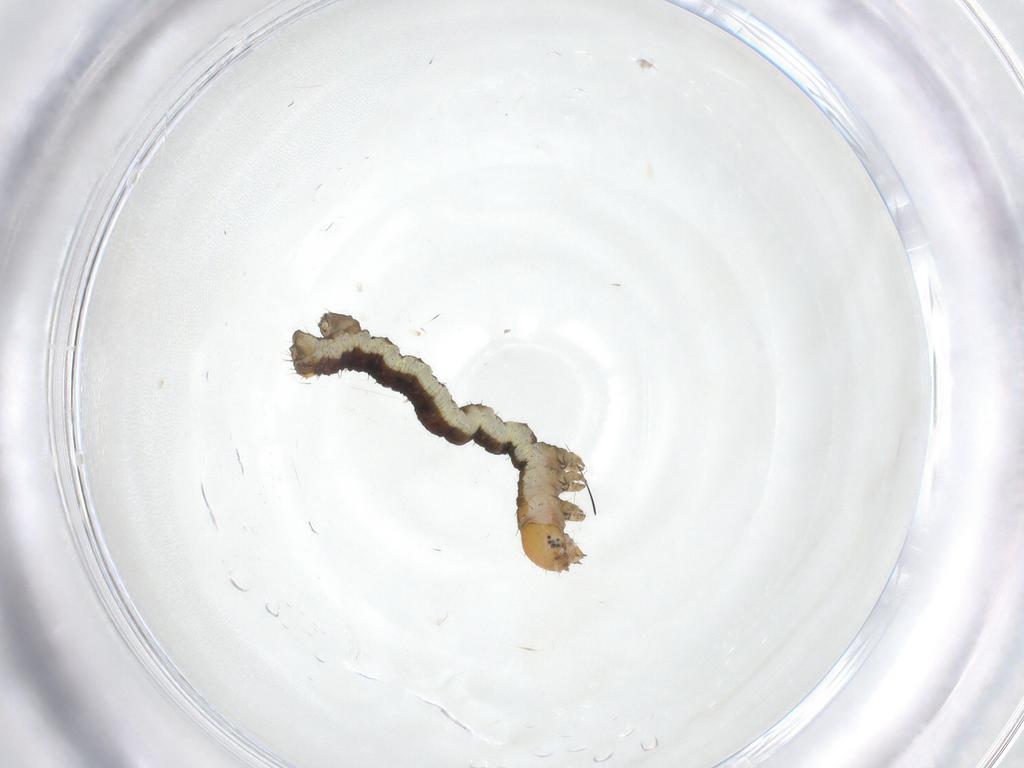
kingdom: Animalia
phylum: Arthropoda
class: Insecta
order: Lepidoptera
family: Geometridae
